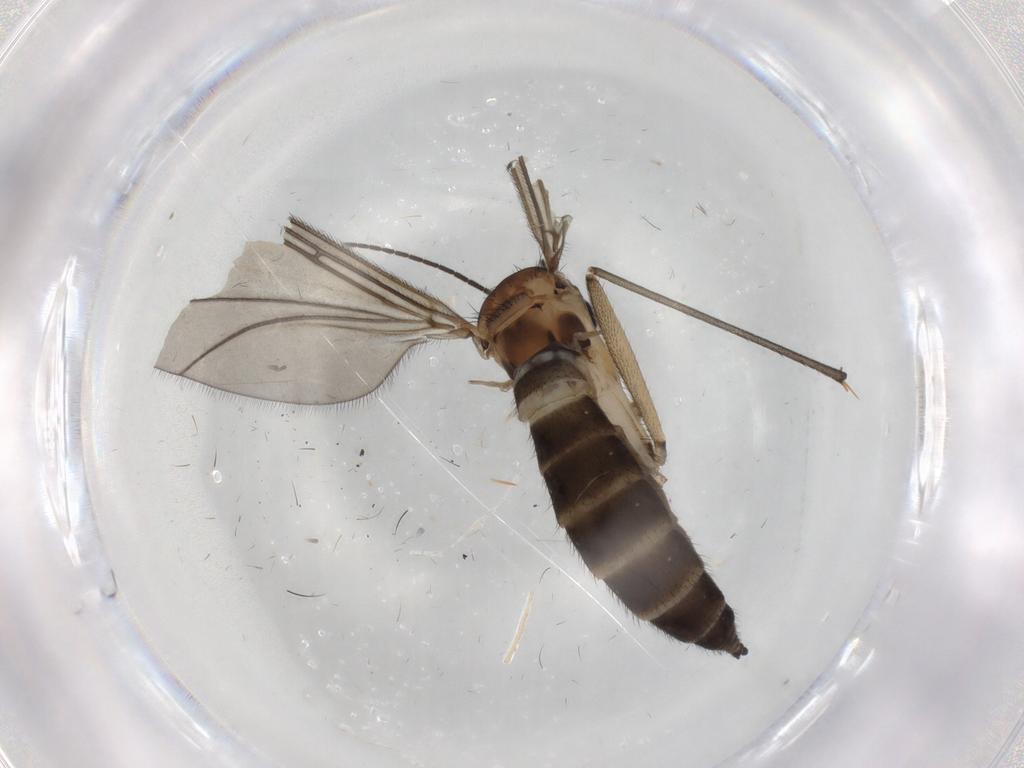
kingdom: Animalia
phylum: Arthropoda
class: Insecta
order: Diptera
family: Sciaridae
